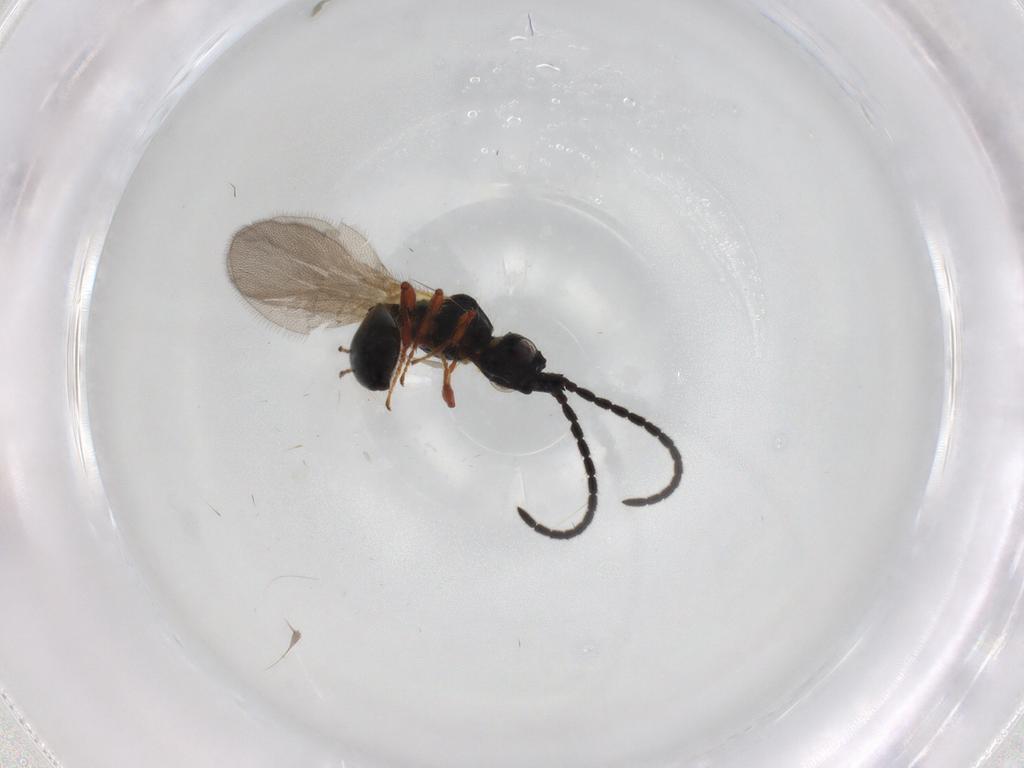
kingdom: Animalia
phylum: Arthropoda
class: Insecta
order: Hymenoptera
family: Diapriidae
